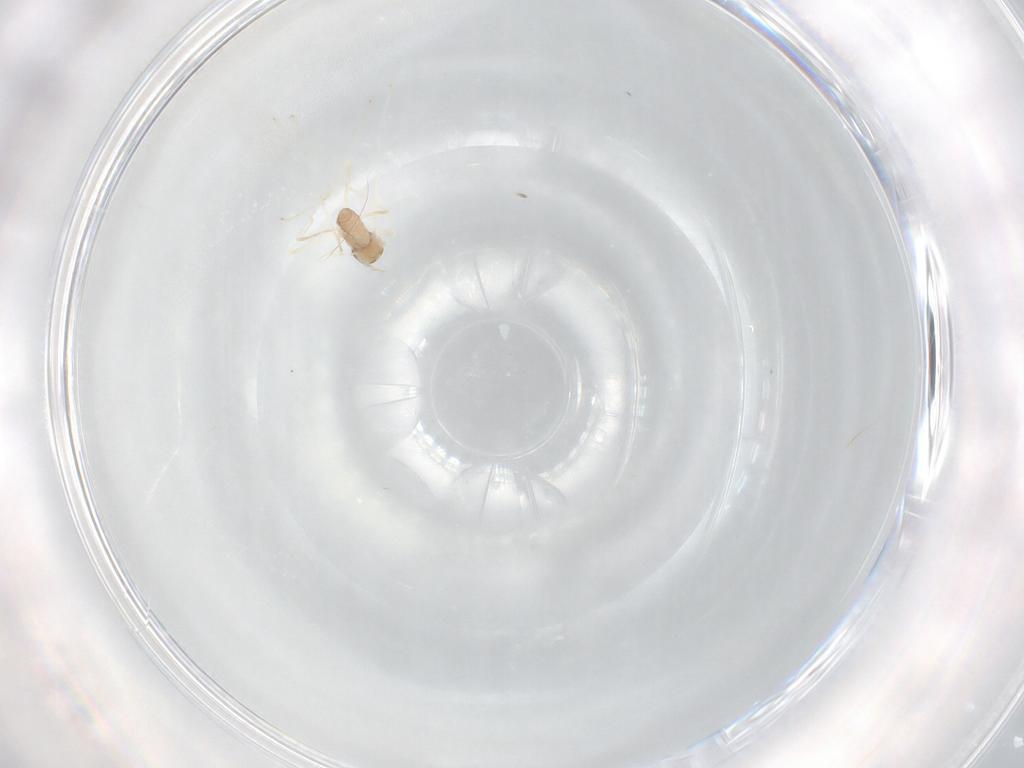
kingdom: Animalia
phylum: Arthropoda
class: Insecta
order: Diptera
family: Cecidomyiidae
